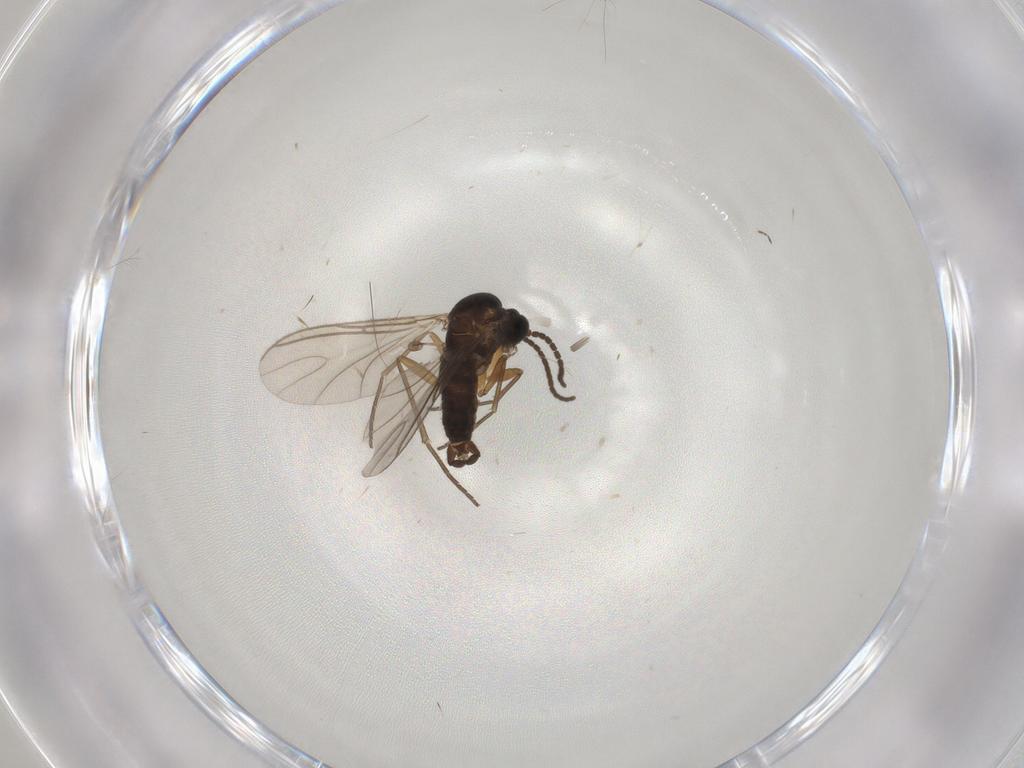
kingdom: Animalia
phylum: Arthropoda
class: Insecta
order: Diptera
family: Sciaridae
